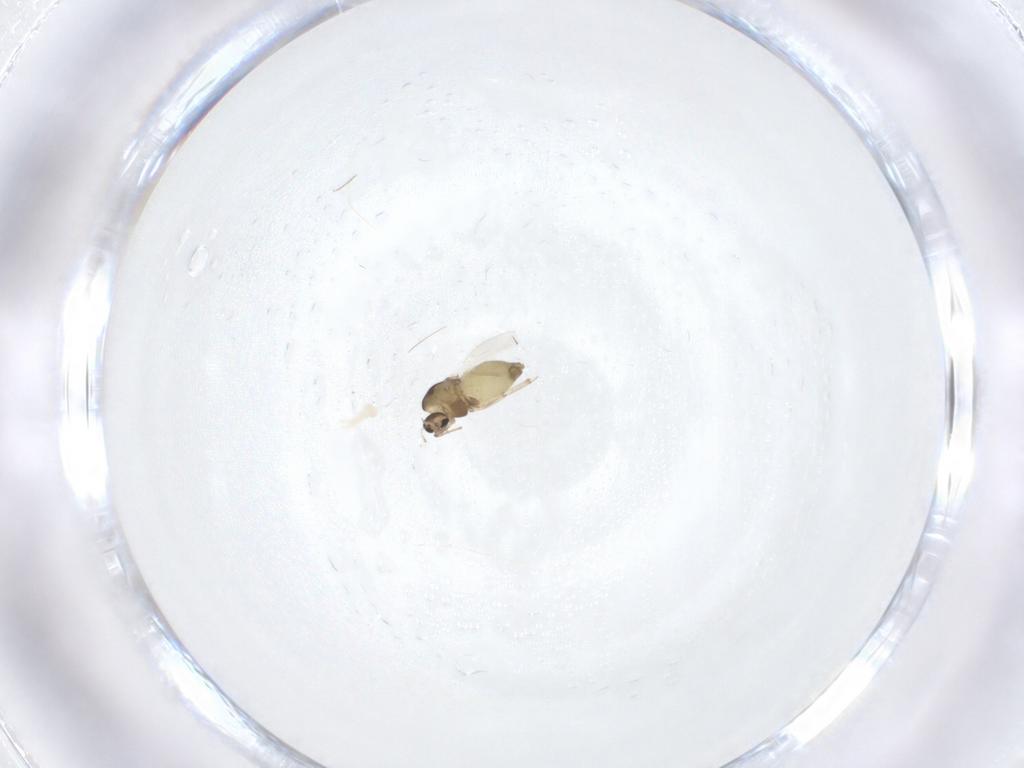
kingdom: Animalia
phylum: Arthropoda
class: Insecta
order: Diptera
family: Chironomidae
